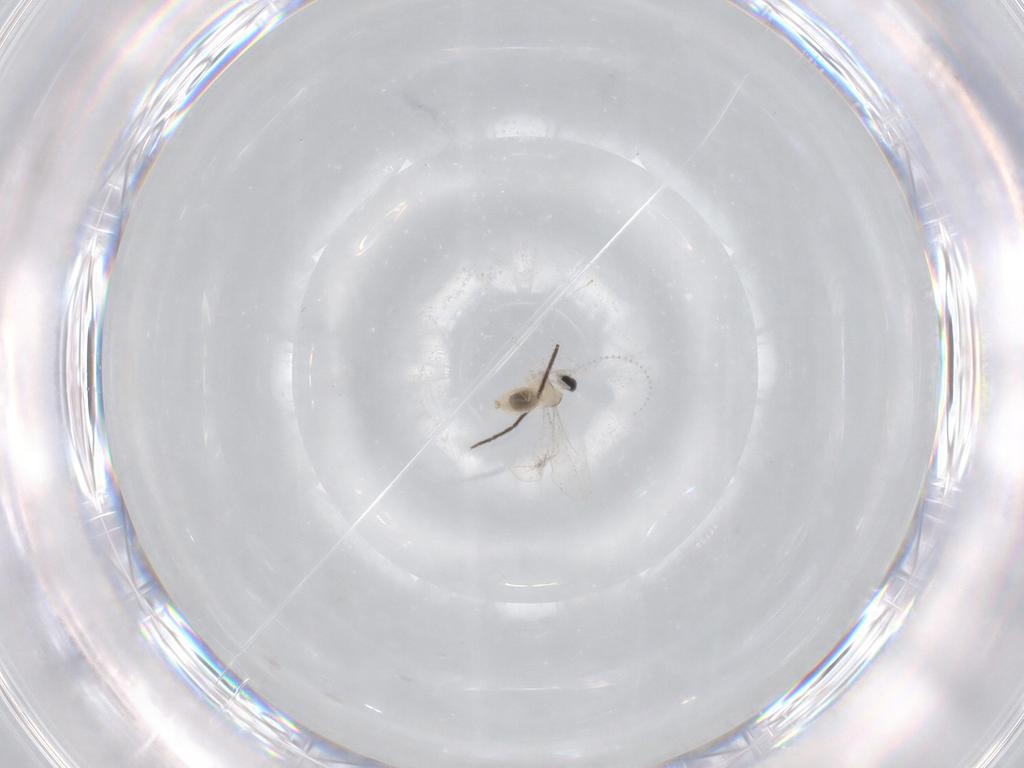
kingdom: Animalia
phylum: Arthropoda
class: Insecta
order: Diptera
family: Chironomidae
